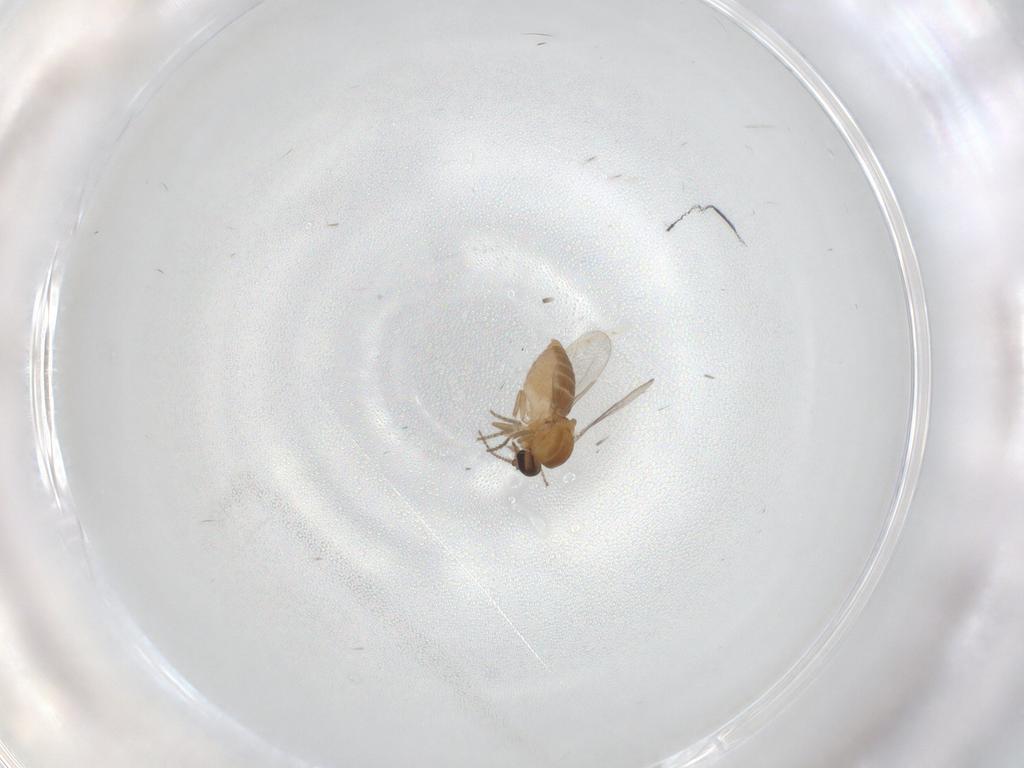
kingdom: Animalia
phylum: Arthropoda
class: Insecta
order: Diptera
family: Ceratopogonidae
